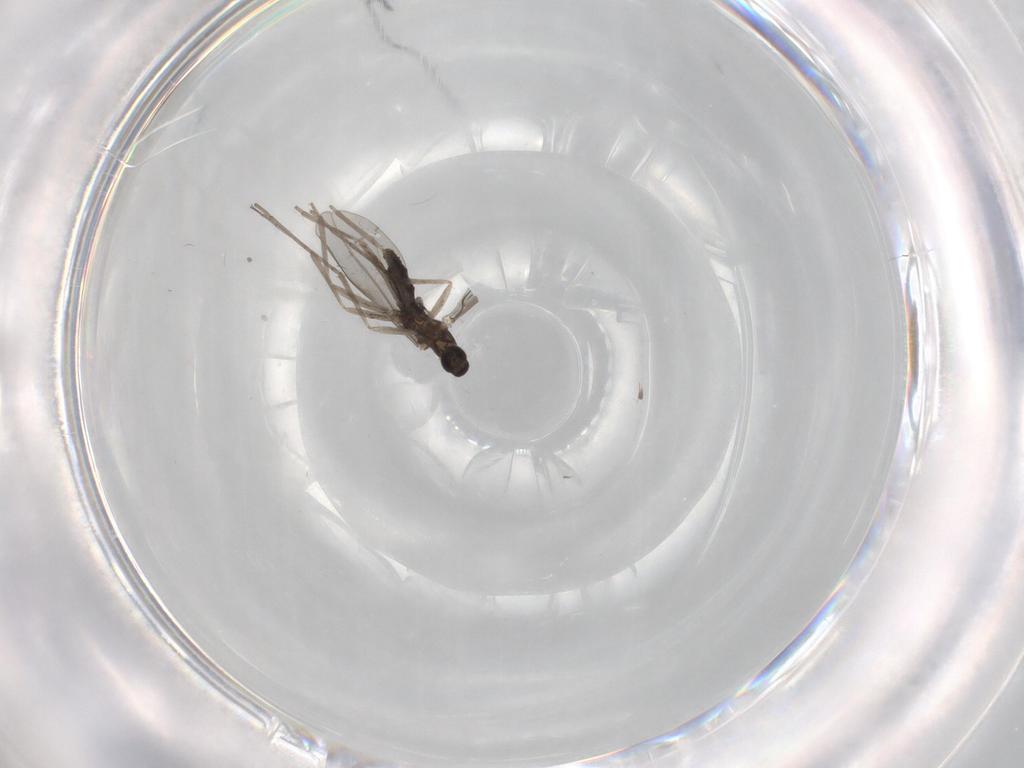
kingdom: Animalia
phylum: Arthropoda
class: Insecta
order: Diptera
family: Cecidomyiidae
